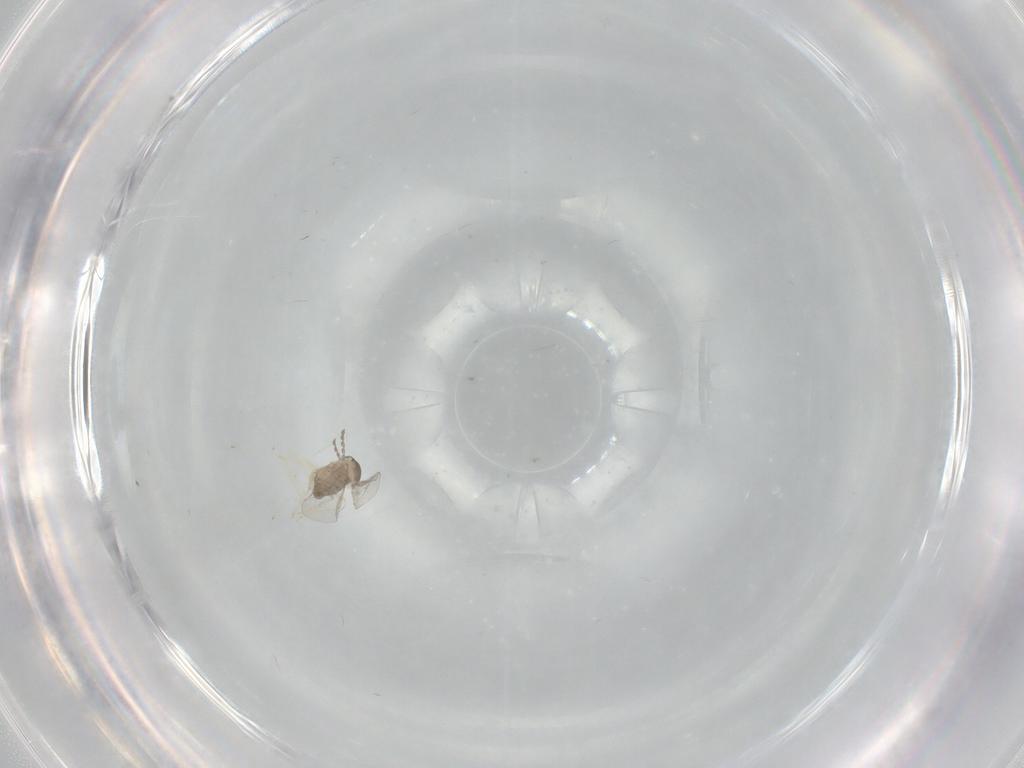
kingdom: Animalia
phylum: Arthropoda
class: Insecta
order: Diptera
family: Cecidomyiidae
